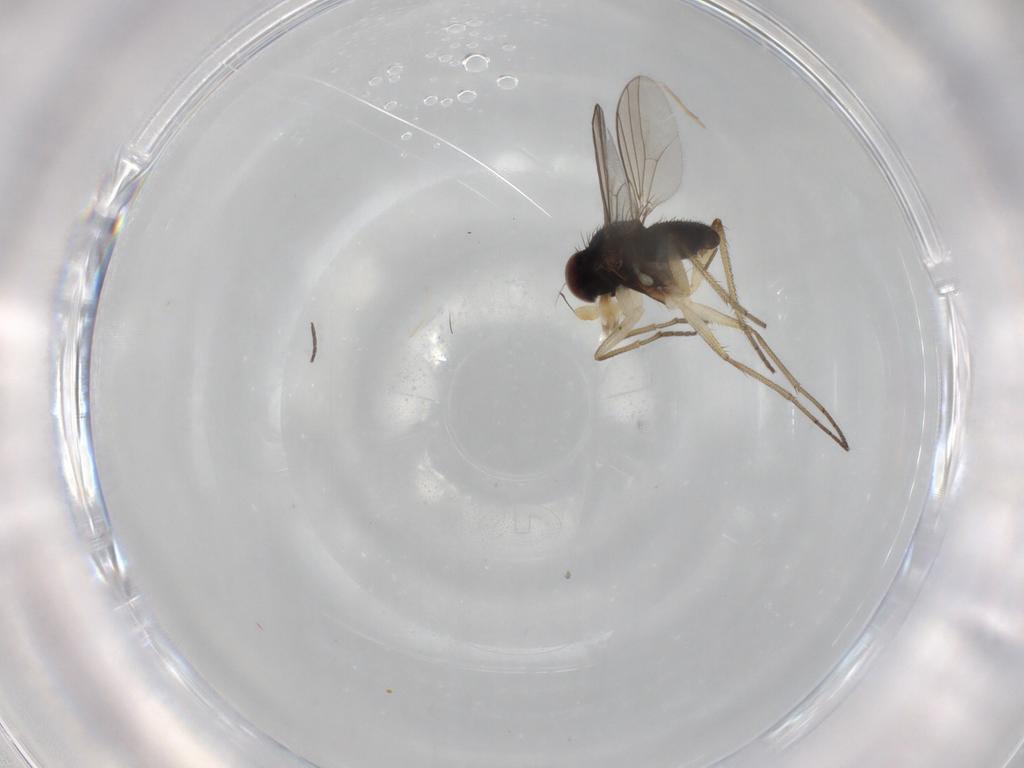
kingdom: Animalia
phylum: Arthropoda
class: Insecta
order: Diptera
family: Dolichopodidae
